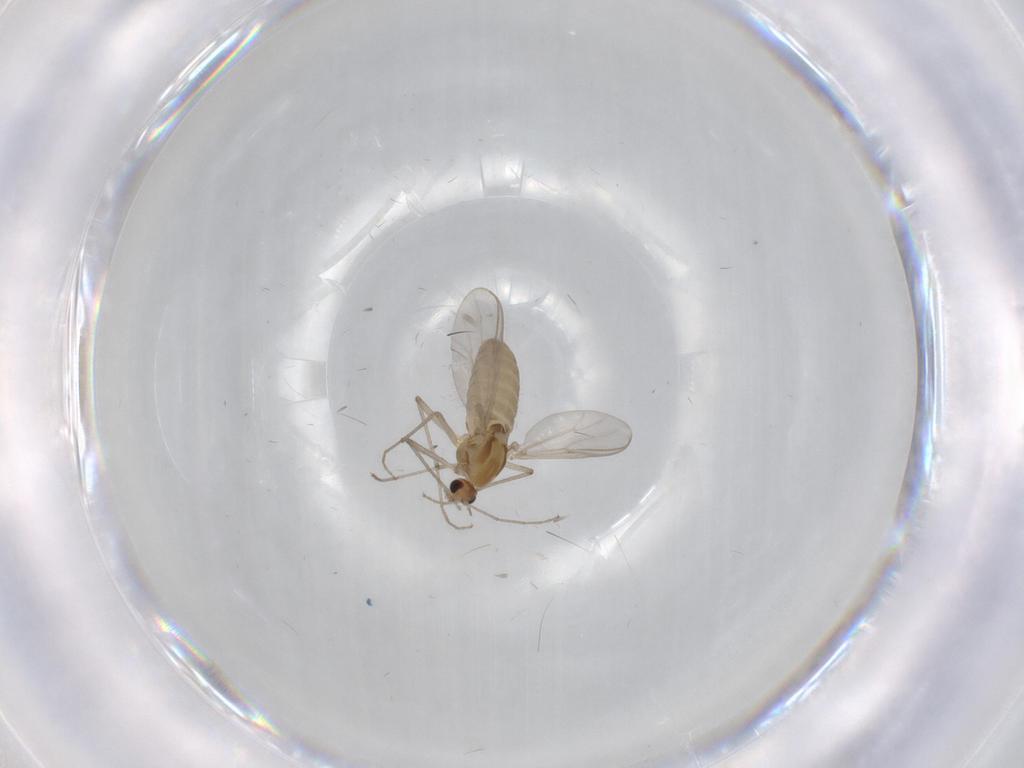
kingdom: Animalia
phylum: Arthropoda
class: Insecta
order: Diptera
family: Chironomidae
